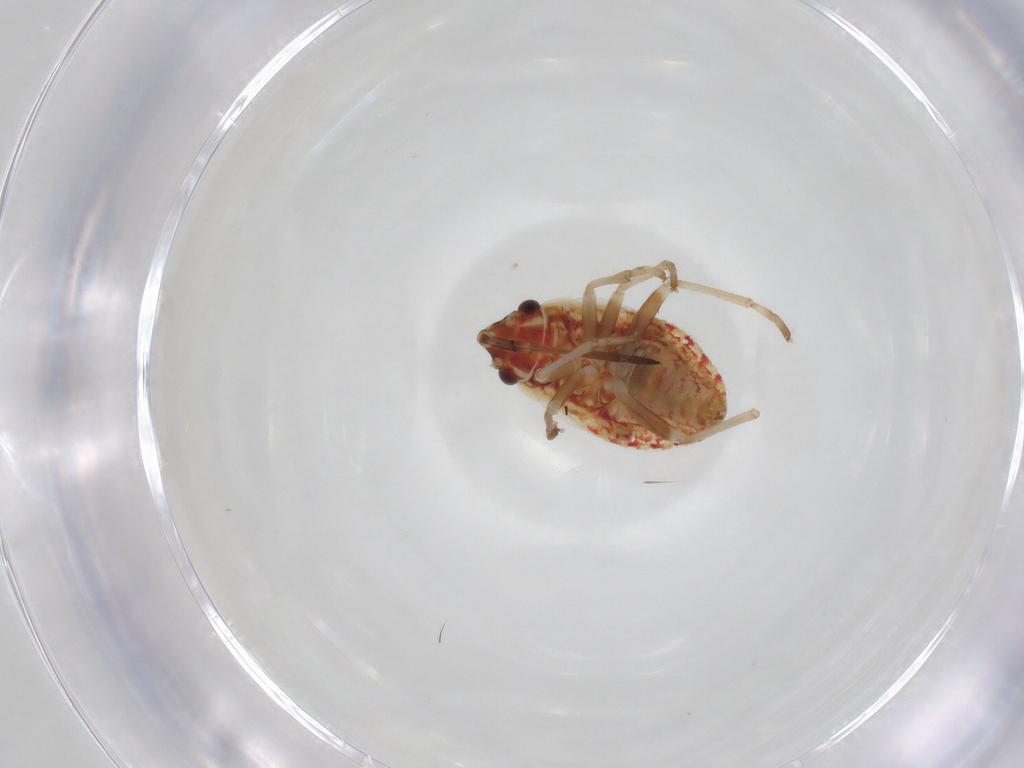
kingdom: Animalia
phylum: Arthropoda
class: Insecta
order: Hemiptera
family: Lygaeidae
